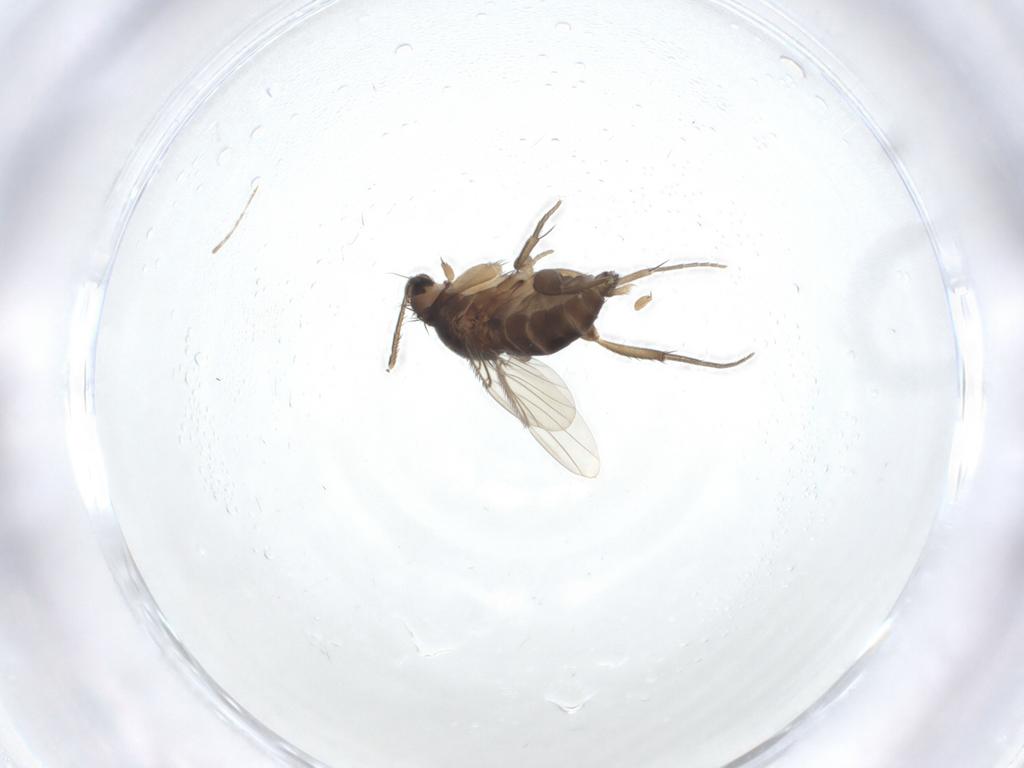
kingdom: Animalia
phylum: Arthropoda
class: Insecta
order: Diptera
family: Phoridae
